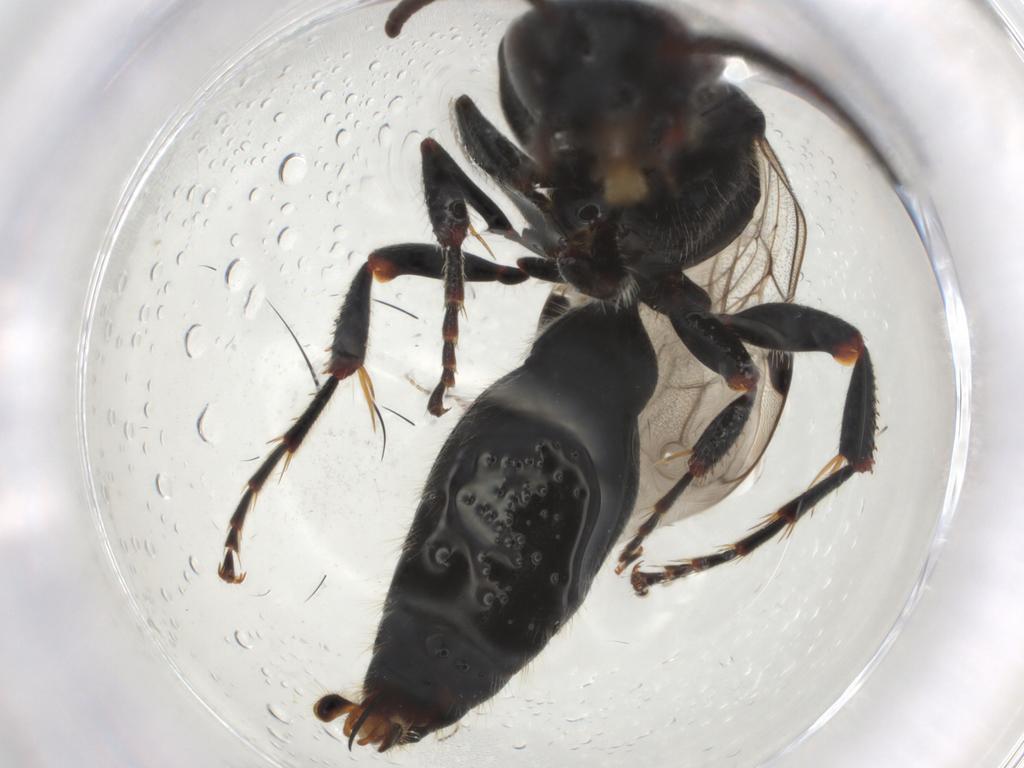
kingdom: Animalia
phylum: Arthropoda
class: Insecta
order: Hymenoptera
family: Tiphiidae
